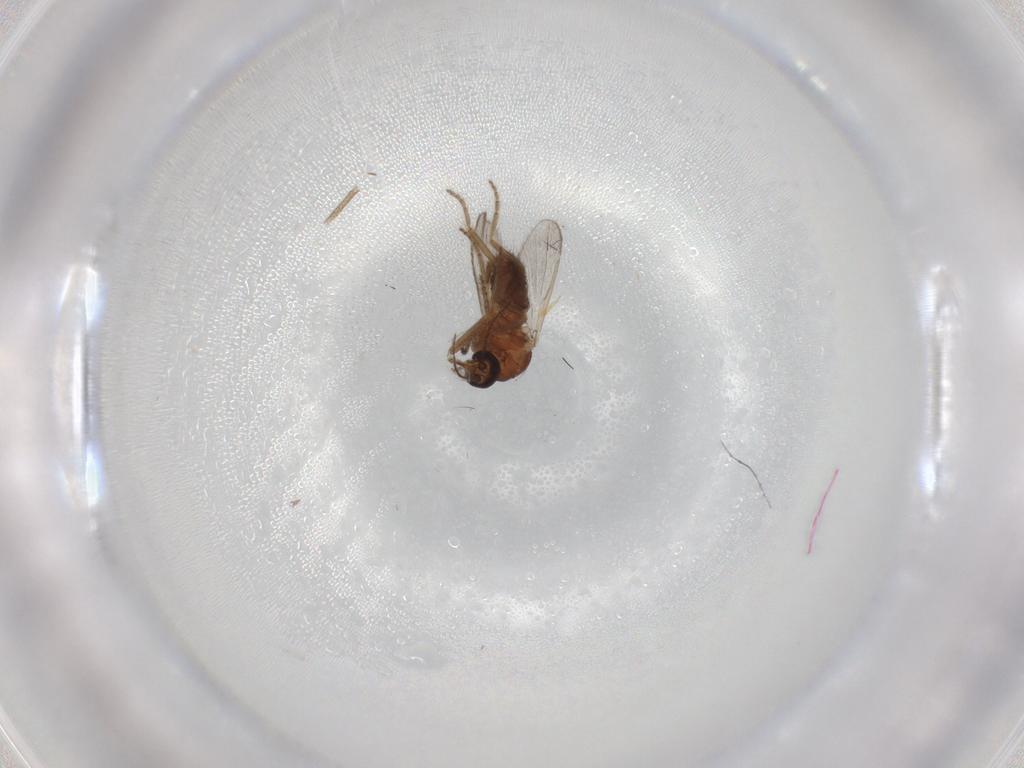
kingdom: Animalia
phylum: Arthropoda
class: Insecta
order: Diptera
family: Ceratopogonidae
